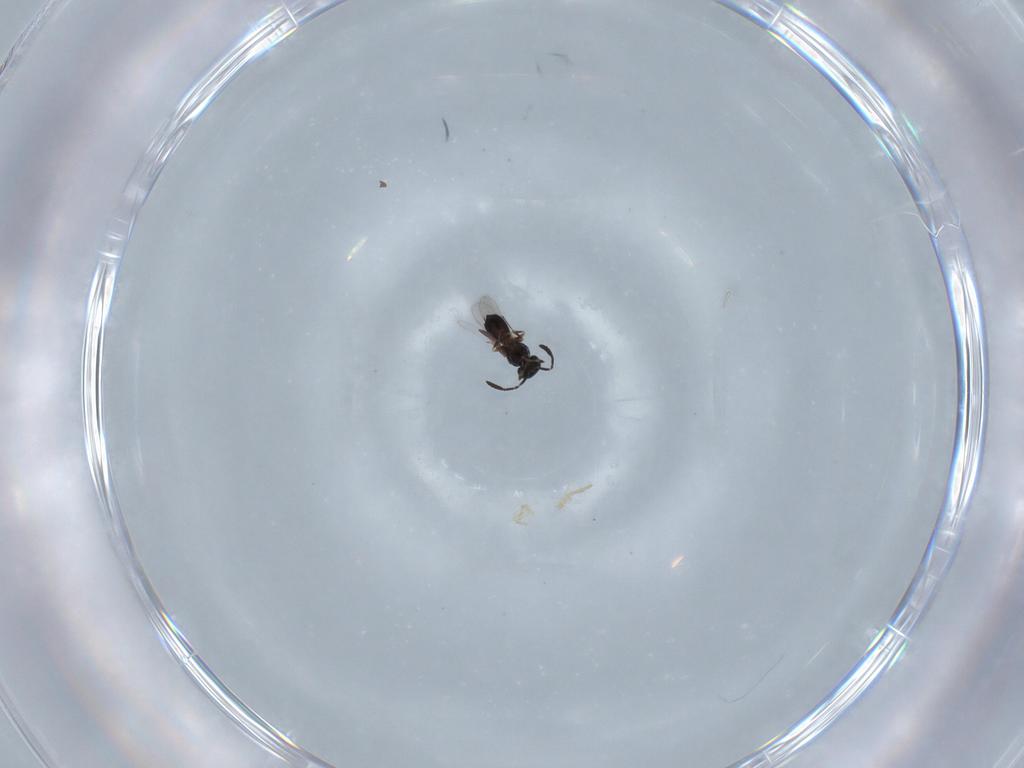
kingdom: Animalia
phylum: Arthropoda
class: Insecta
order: Hymenoptera
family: Scelionidae
